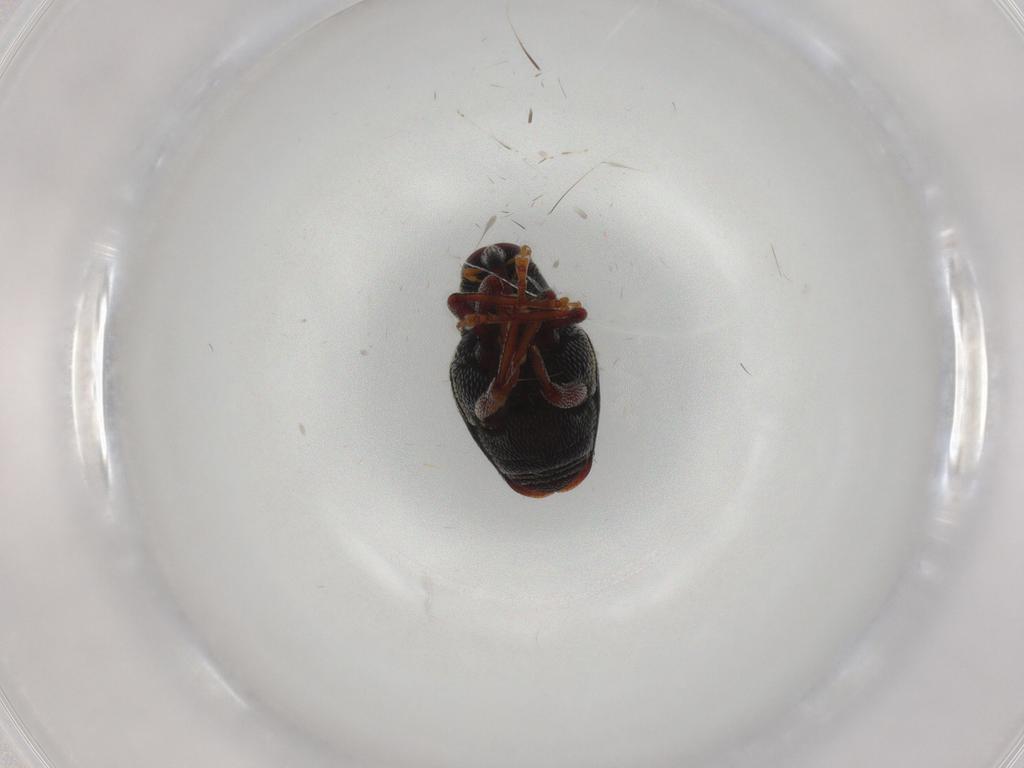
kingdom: Animalia
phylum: Arthropoda
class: Insecta
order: Coleoptera
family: Curculionidae
